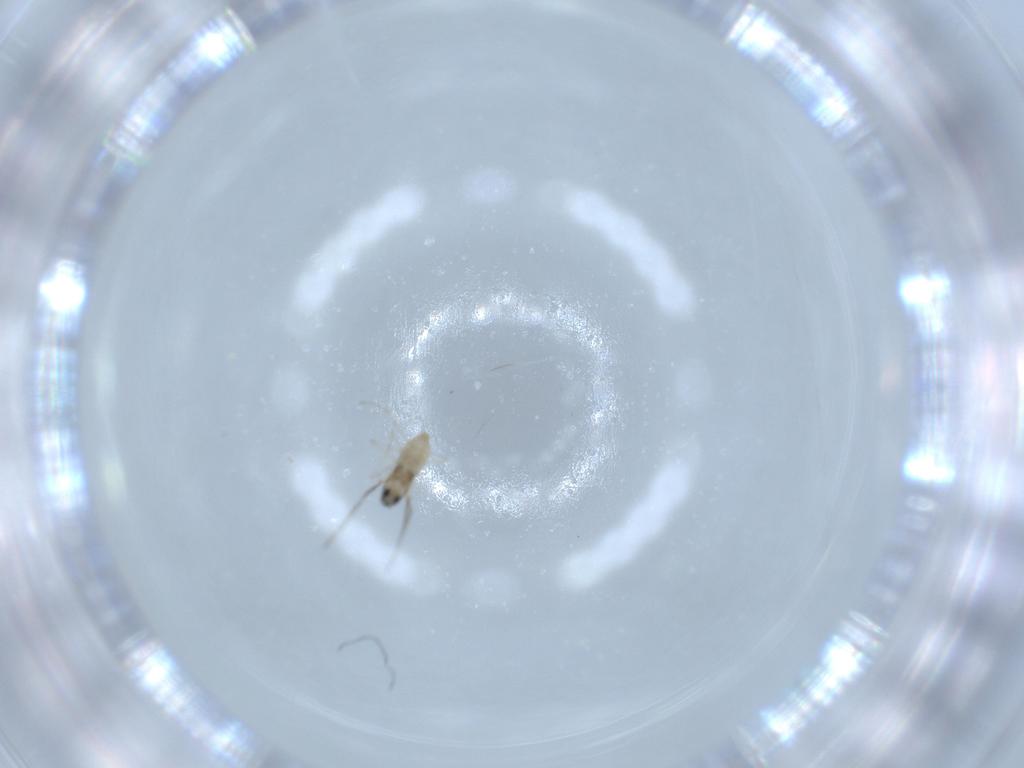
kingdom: Animalia
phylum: Arthropoda
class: Insecta
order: Diptera
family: Cecidomyiidae
